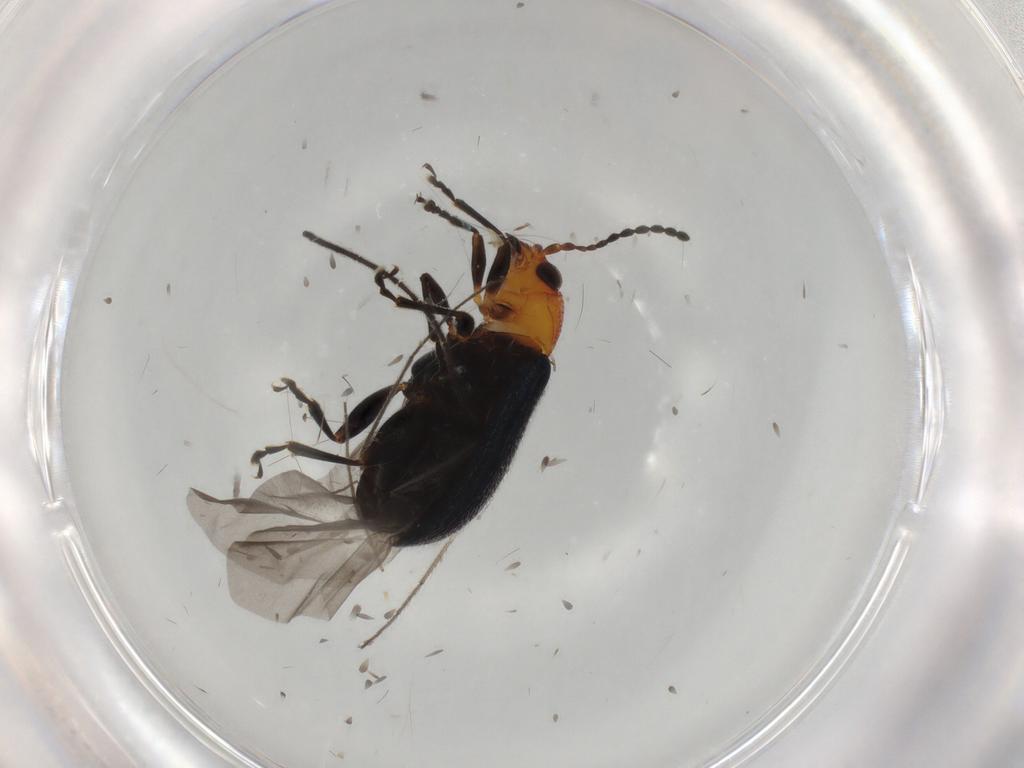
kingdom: Animalia
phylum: Arthropoda
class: Insecta
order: Coleoptera
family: Chrysomelidae
